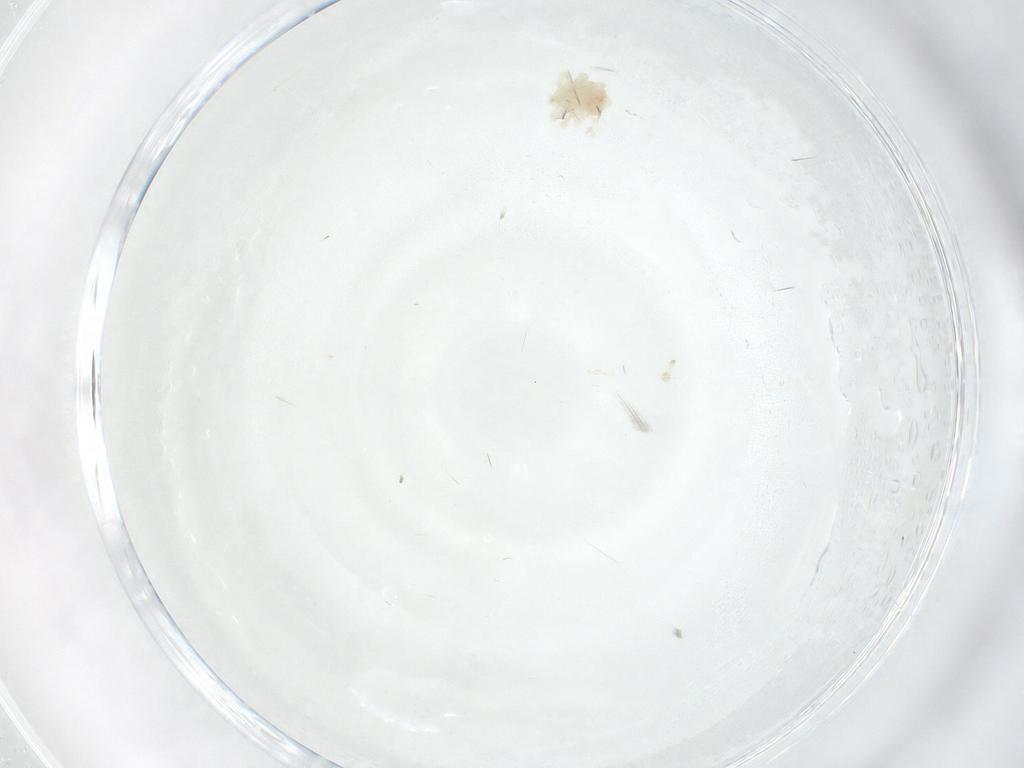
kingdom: Animalia
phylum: Arthropoda
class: Arachnida
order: Trombidiformes
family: Anystidae
